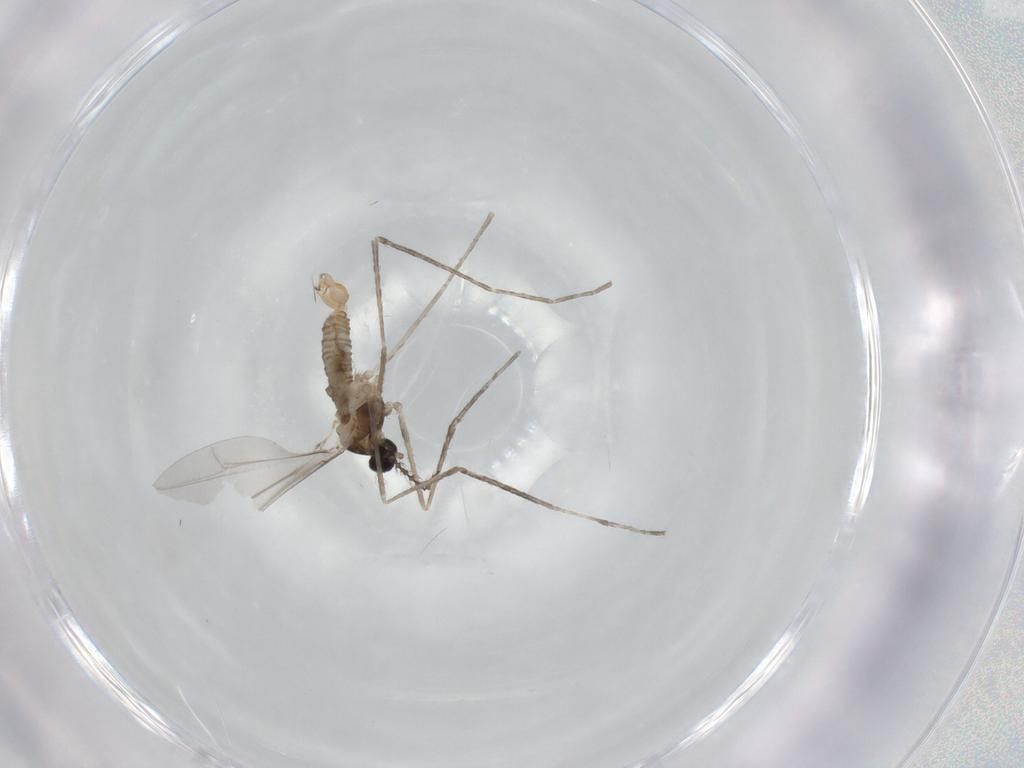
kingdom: Animalia
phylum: Arthropoda
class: Insecta
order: Diptera
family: Cecidomyiidae
